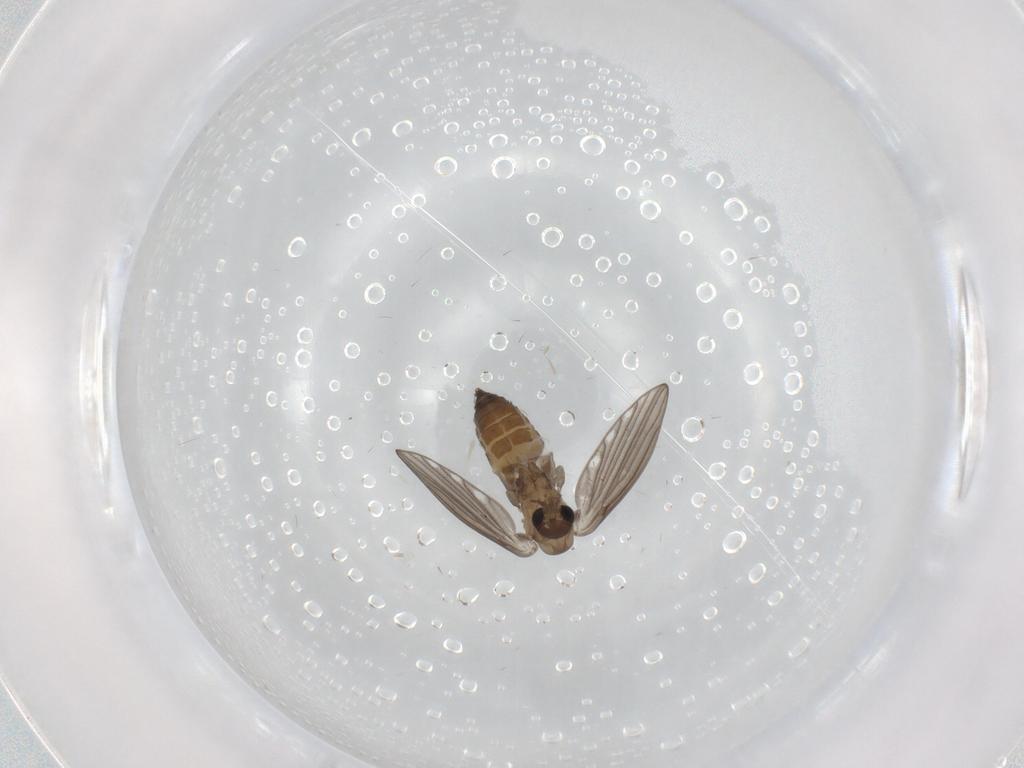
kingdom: Animalia
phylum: Arthropoda
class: Insecta
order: Diptera
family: Psychodidae
